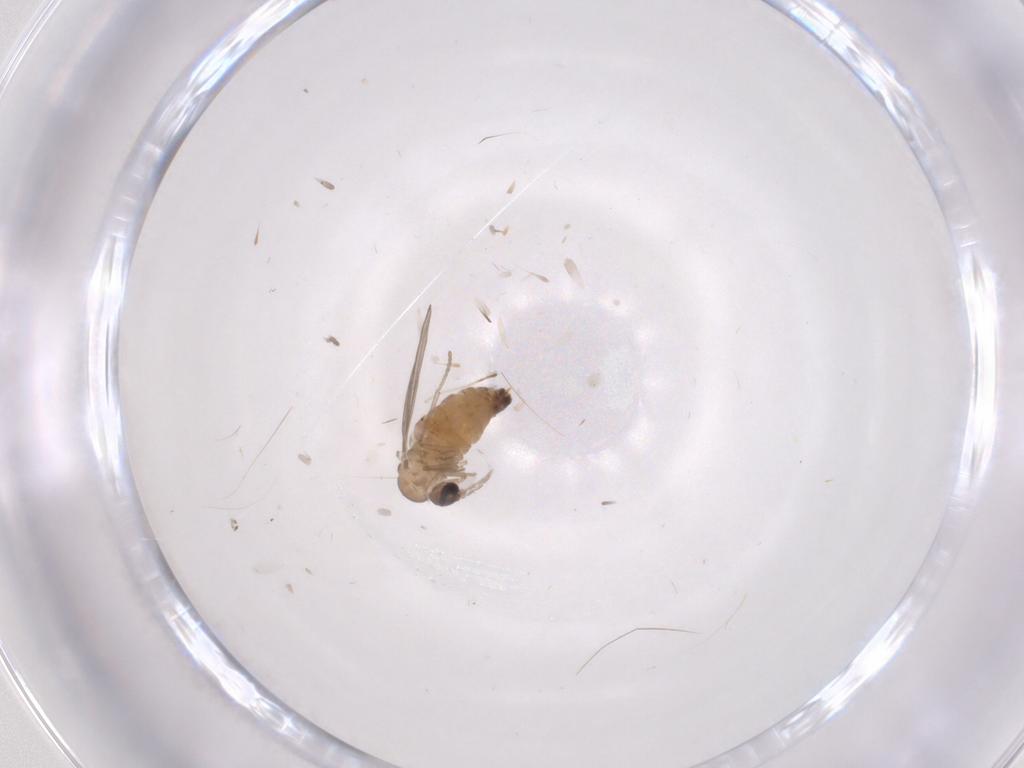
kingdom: Animalia
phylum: Arthropoda
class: Insecta
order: Diptera
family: Psychodidae
